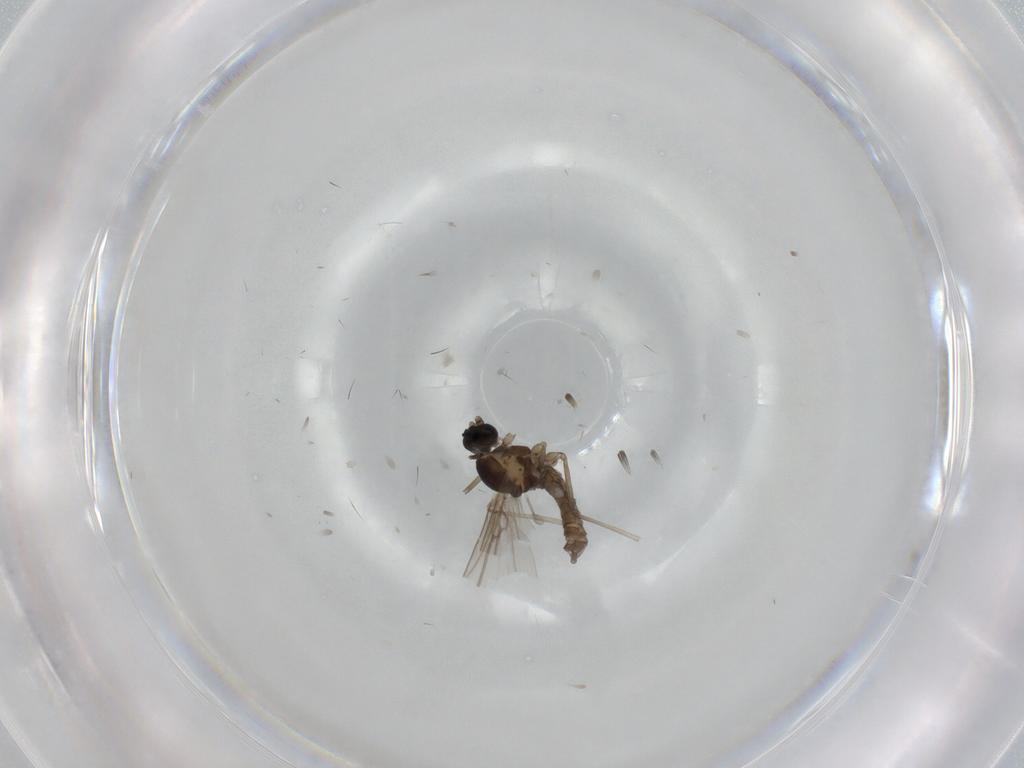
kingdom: Animalia
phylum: Arthropoda
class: Insecta
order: Diptera
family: Cecidomyiidae
